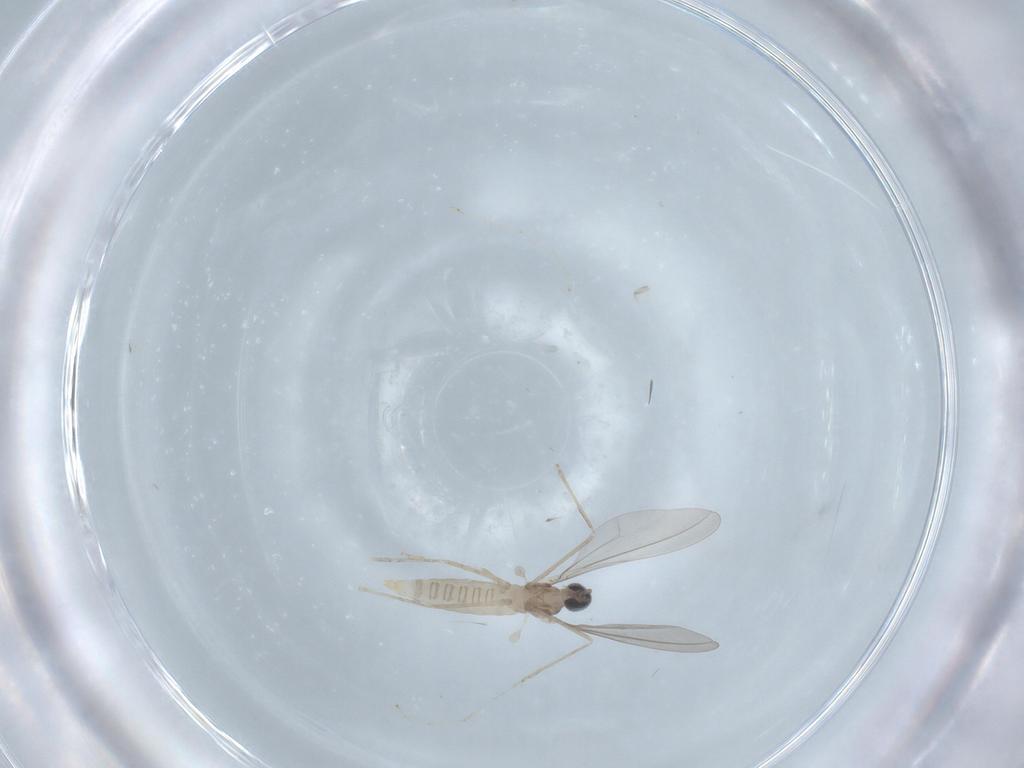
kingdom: Animalia
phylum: Arthropoda
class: Insecta
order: Diptera
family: Cecidomyiidae
